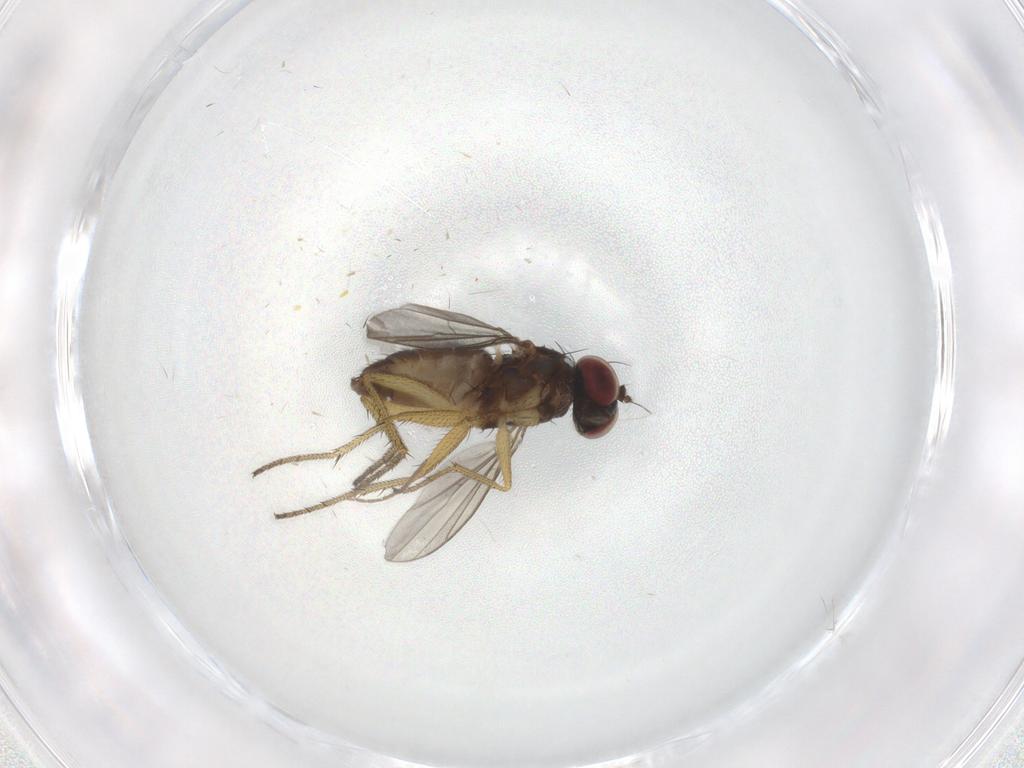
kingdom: Animalia
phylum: Arthropoda
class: Insecta
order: Diptera
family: Dolichopodidae
